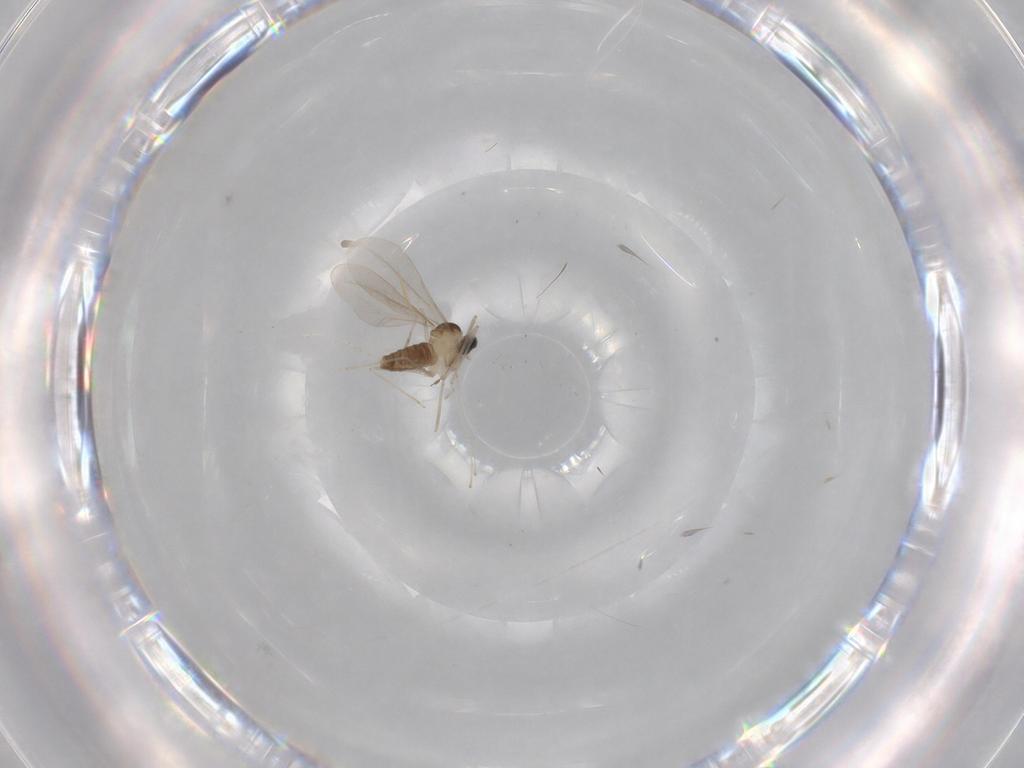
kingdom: Animalia
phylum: Arthropoda
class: Insecta
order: Diptera
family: Cecidomyiidae
